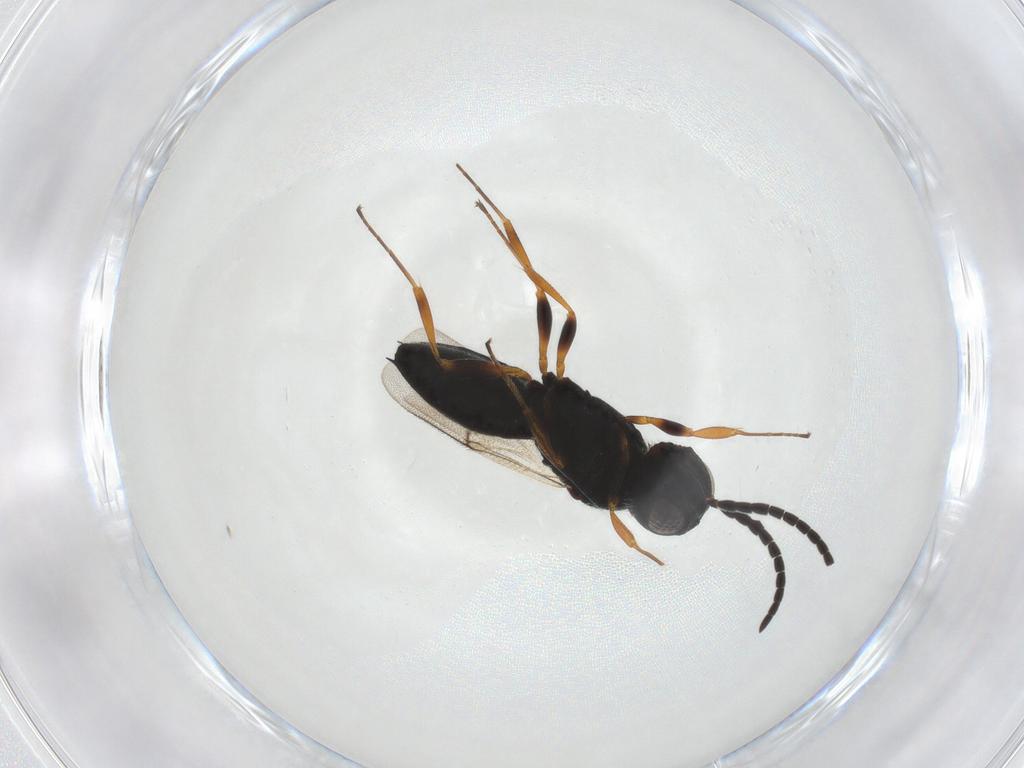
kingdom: Animalia
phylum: Arthropoda
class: Insecta
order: Hymenoptera
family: Scelionidae
